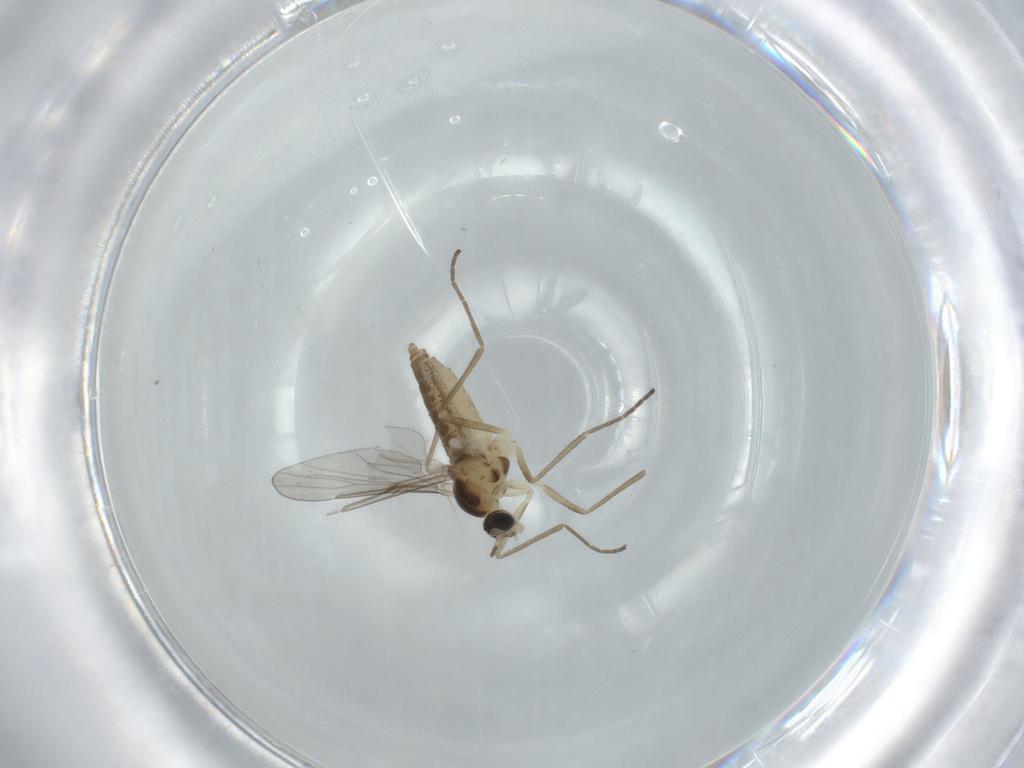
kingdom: Animalia
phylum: Arthropoda
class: Insecta
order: Diptera
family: Cecidomyiidae
